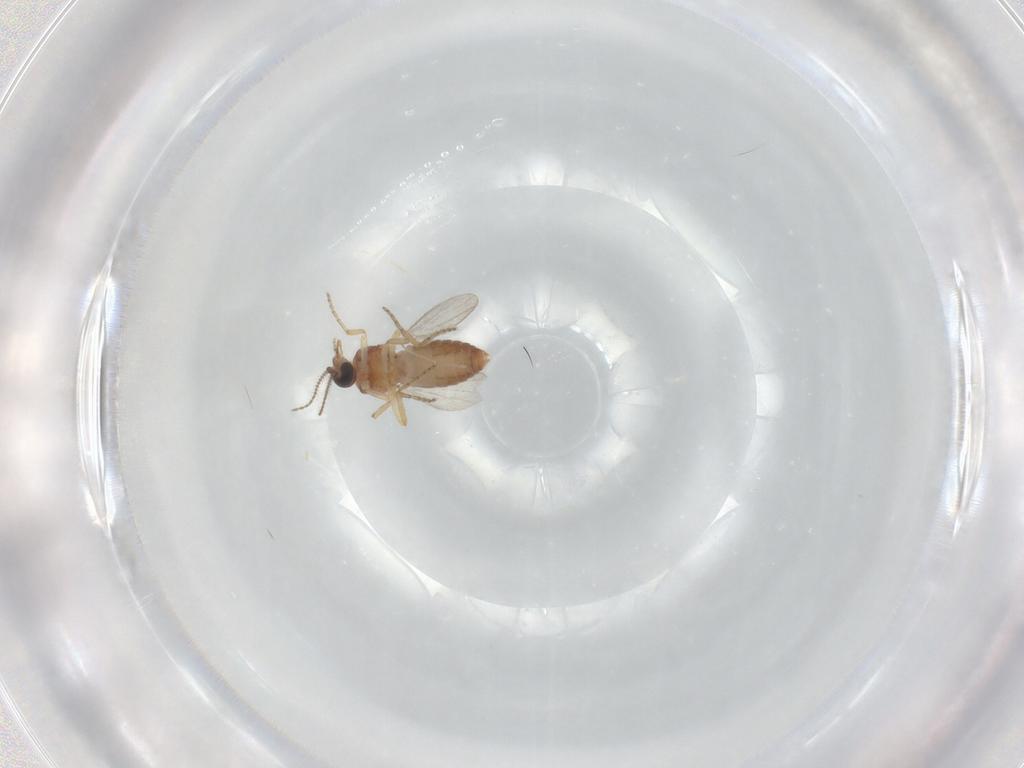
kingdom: Animalia
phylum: Arthropoda
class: Insecta
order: Diptera
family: Ceratopogonidae
